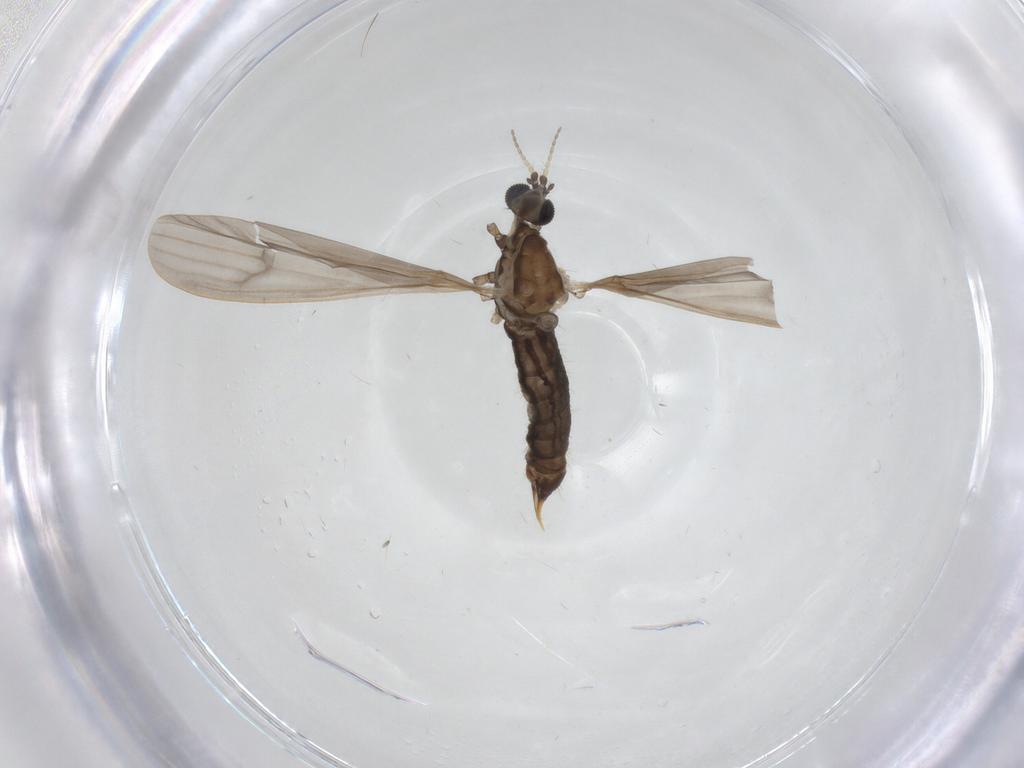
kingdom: Animalia
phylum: Arthropoda
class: Insecta
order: Diptera
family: Limoniidae
